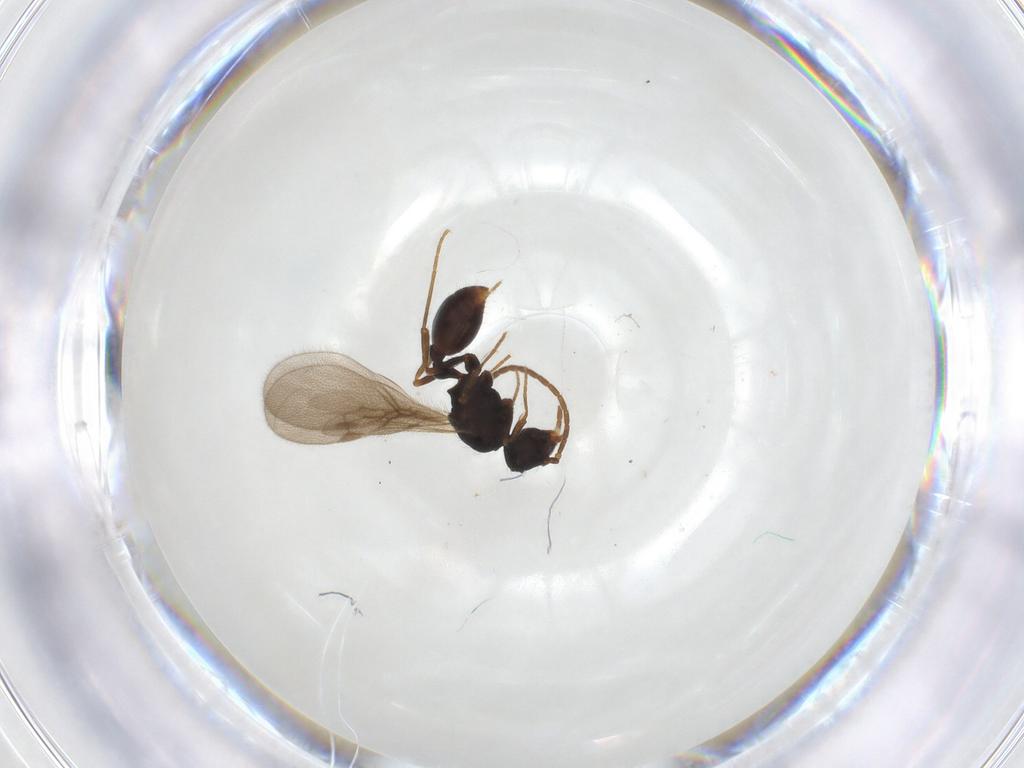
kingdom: Animalia
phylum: Arthropoda
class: Insecta
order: Hymenoptera
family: Formicidae
